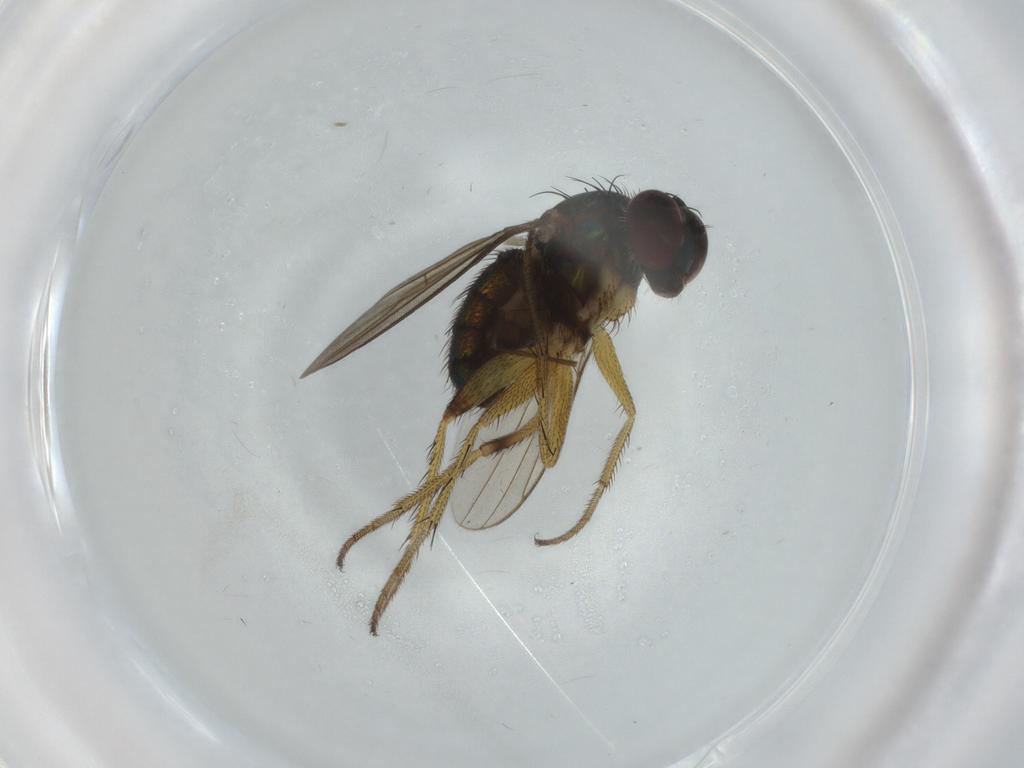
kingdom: Animalia
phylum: Arthropoda
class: Insecta
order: Diptera
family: Dolichopodidae
